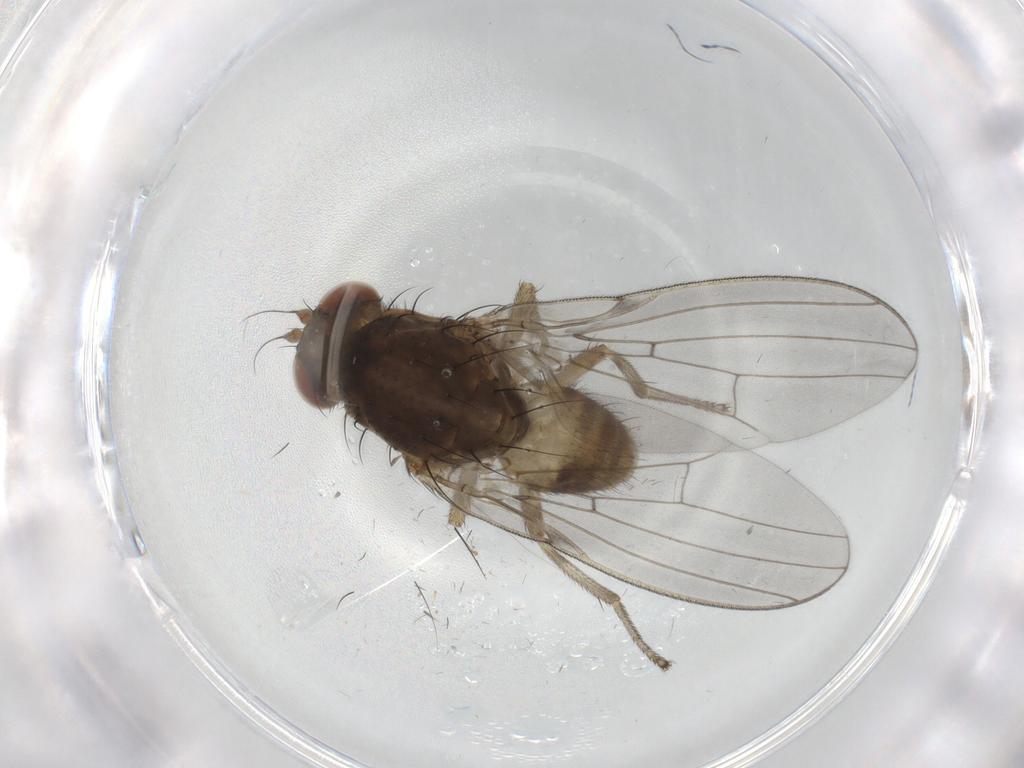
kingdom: Animalia
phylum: Arthropoda
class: Insecta
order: Diptera
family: Lauxaniidae
